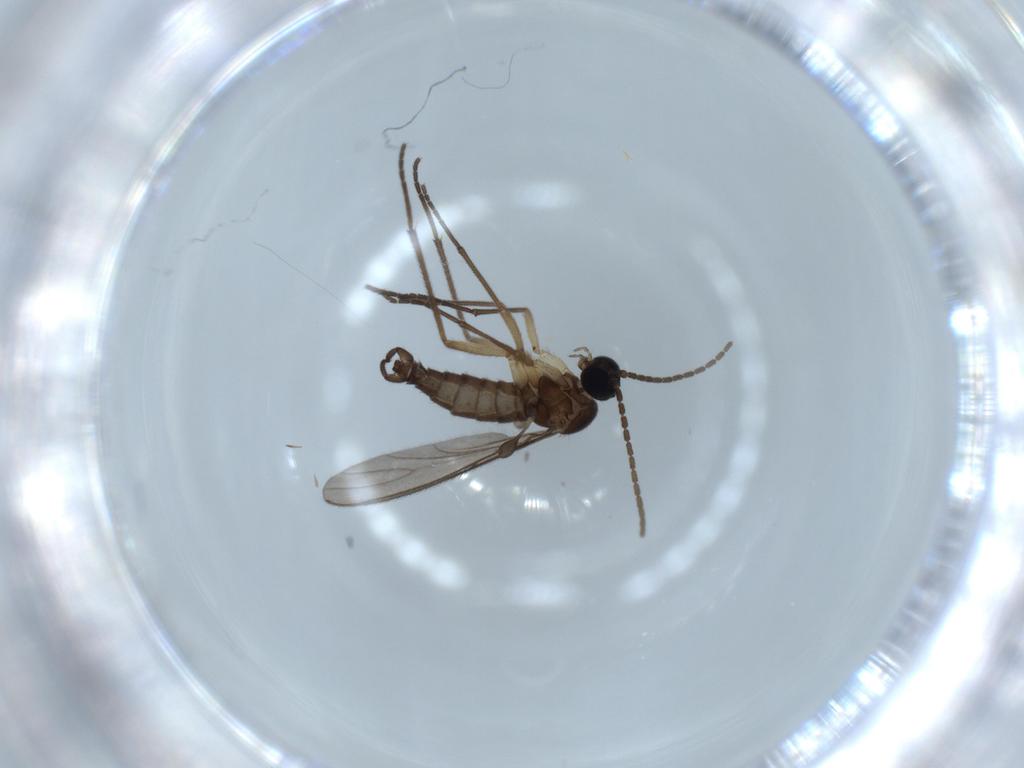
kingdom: Animalia
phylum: Arthropoda
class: Insecta
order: Diptera
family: Sciaridae
